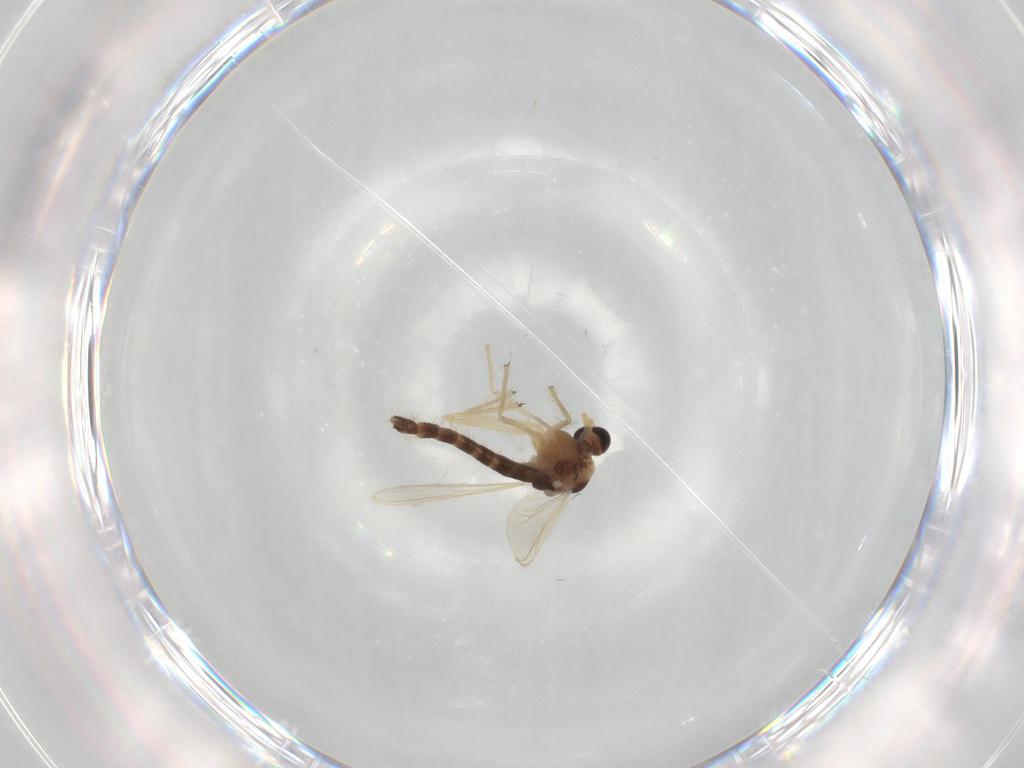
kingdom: Animalia
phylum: Arthropoda
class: Insecta
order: Diptera
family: Chironomidae
